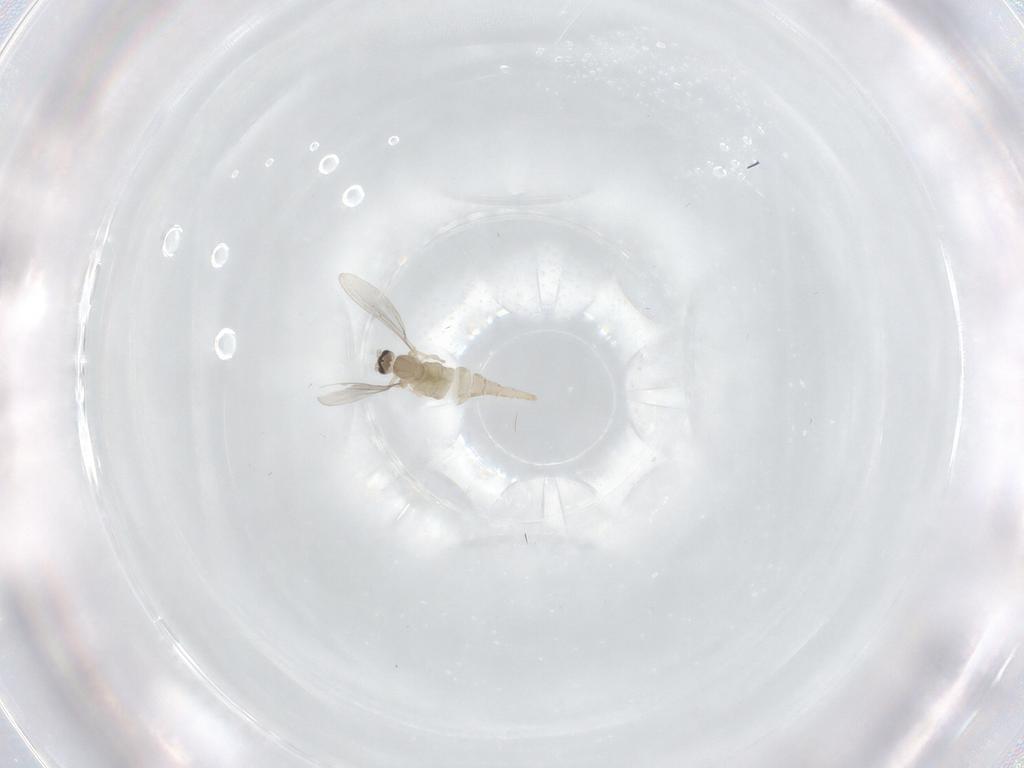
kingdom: Animalia
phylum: Arthropoda
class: Insecta
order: Diptera
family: Cecidomyiidae
